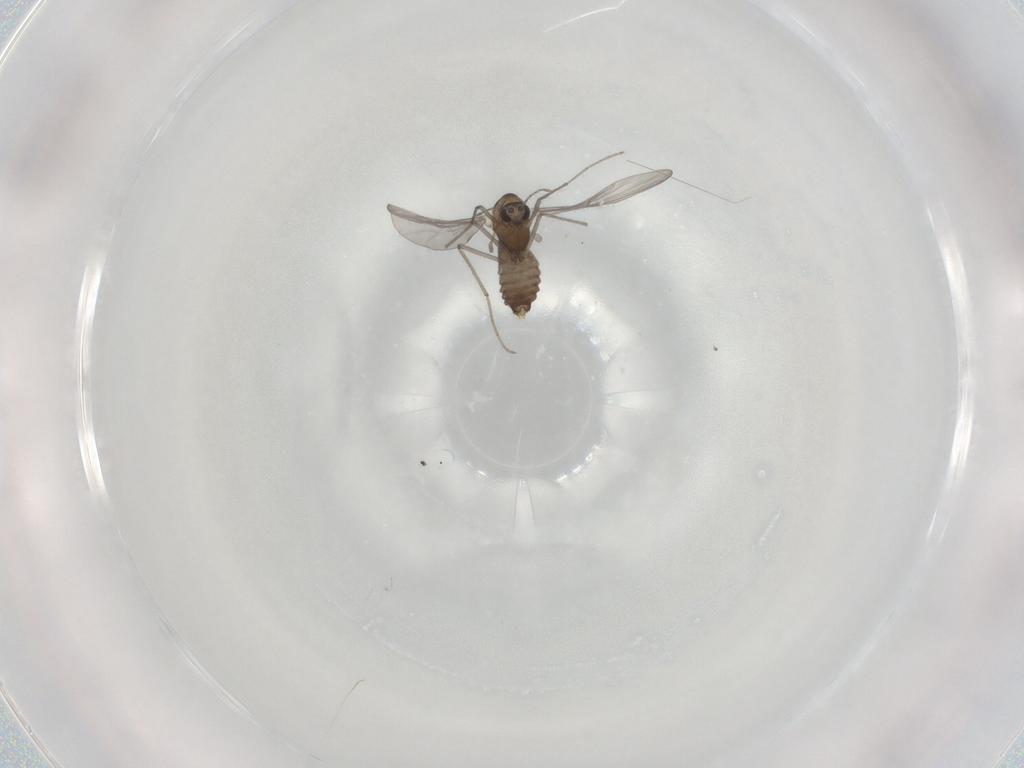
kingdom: Animalia
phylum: Arthropoda
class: Insecta
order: Diptera
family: Chironomidae
